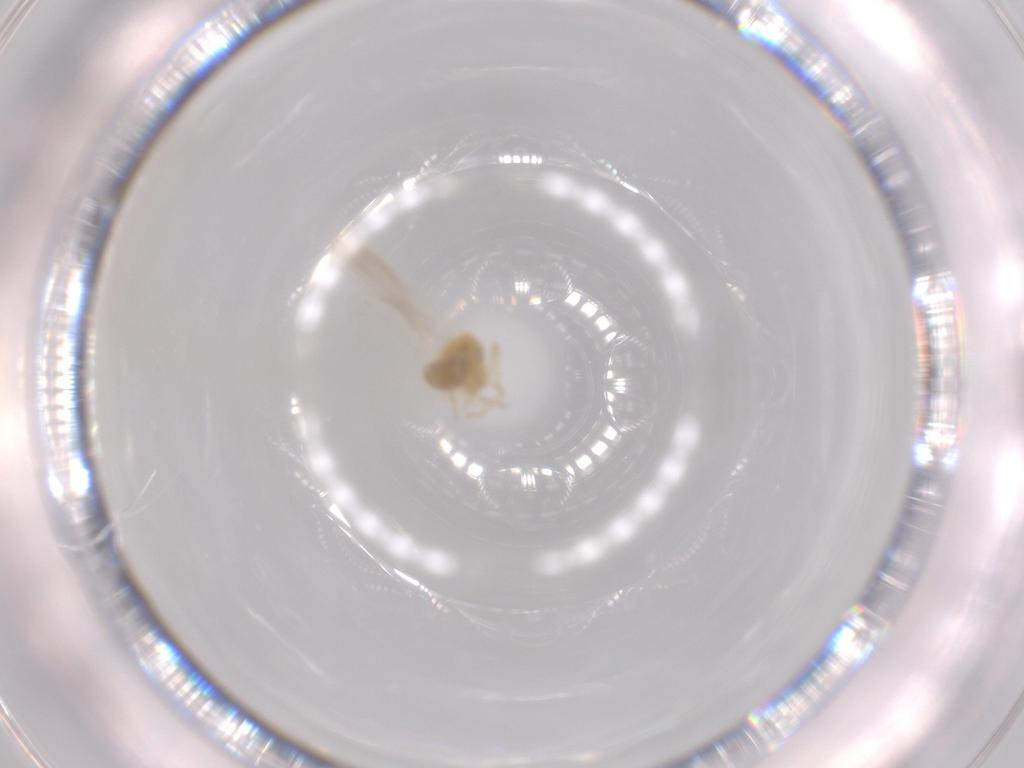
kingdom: Animalia
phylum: Arthropoda
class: Insecta
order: Hemiptera
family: Aleyrodidae
